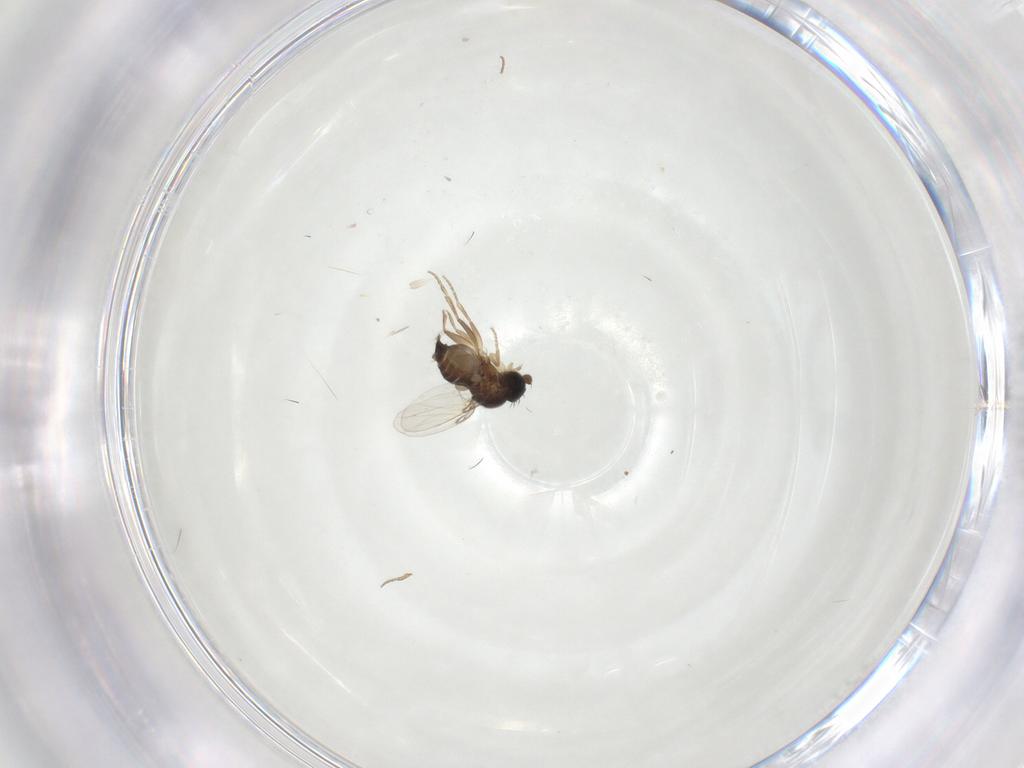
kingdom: Animalia
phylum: Arthropoda
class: Insecta
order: Diptera
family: Phoridae
